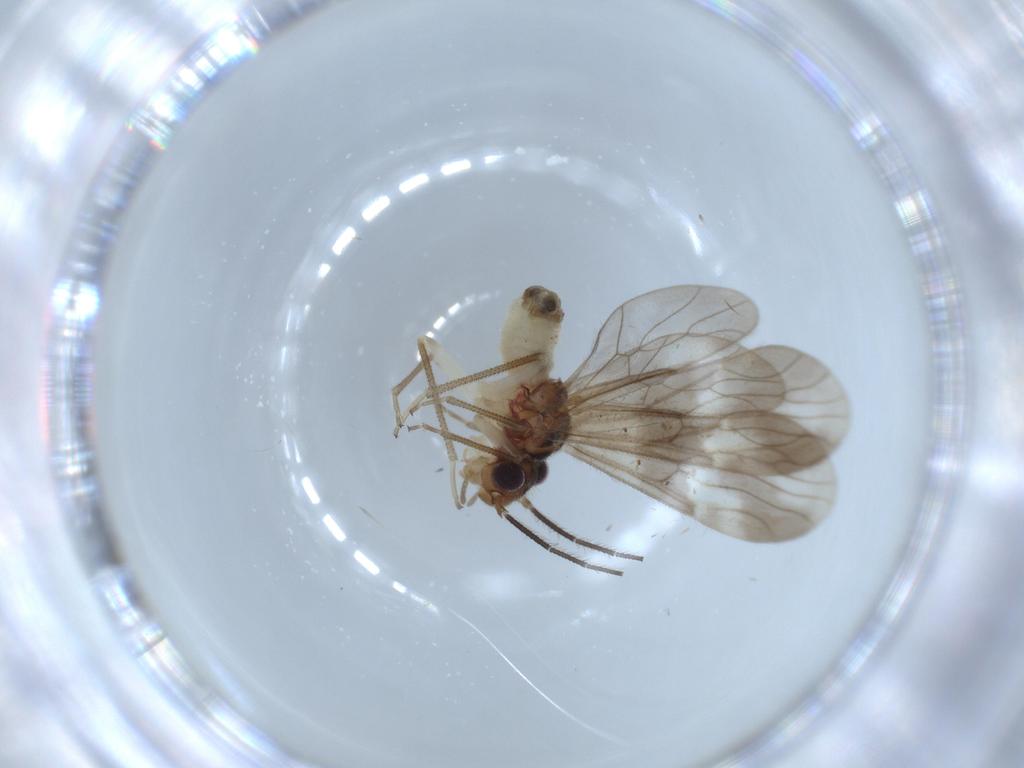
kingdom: Animalia
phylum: Arthropoda
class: Insecta
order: Psocodea
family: Amphipsocidae
